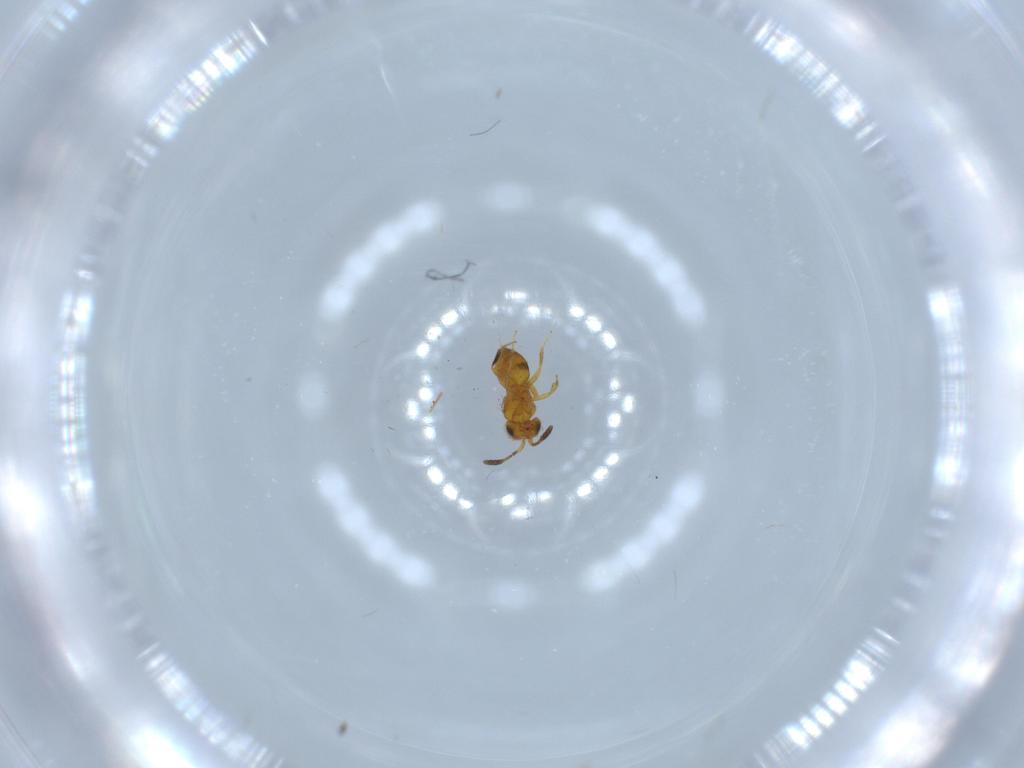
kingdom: Animalia
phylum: Arthropoda
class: Insecta
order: Hymenoptera
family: Scelionidae
